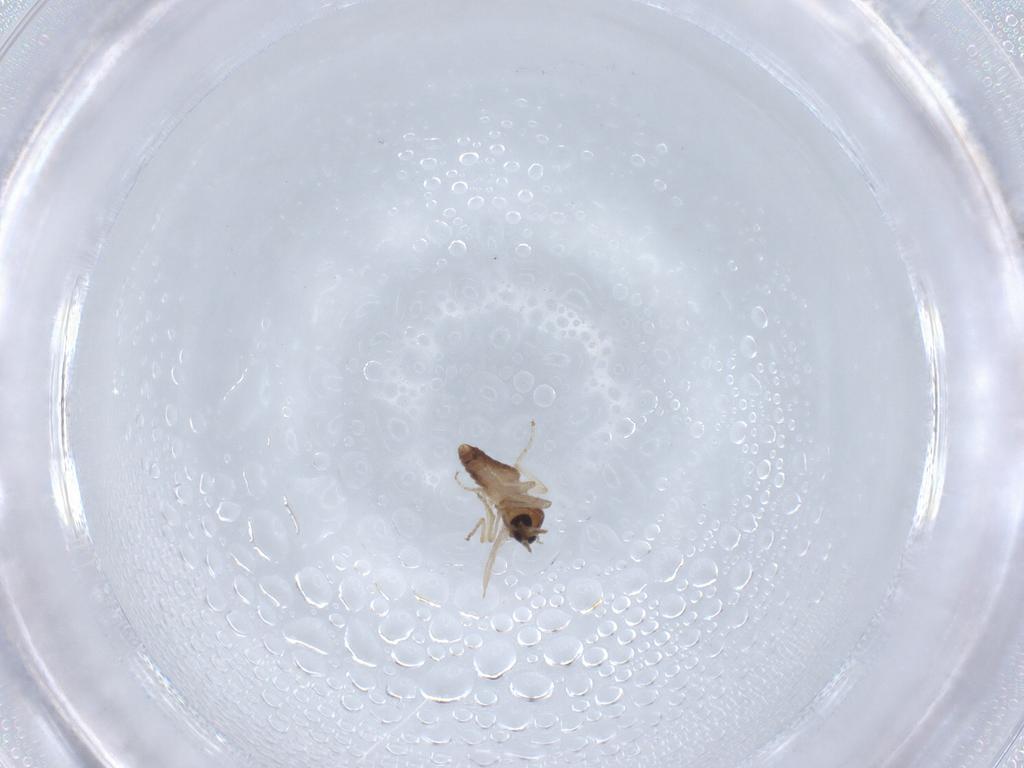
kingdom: Animalia
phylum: Arthropoda
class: Insecta
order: Diptera
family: Ceratopogonidae
